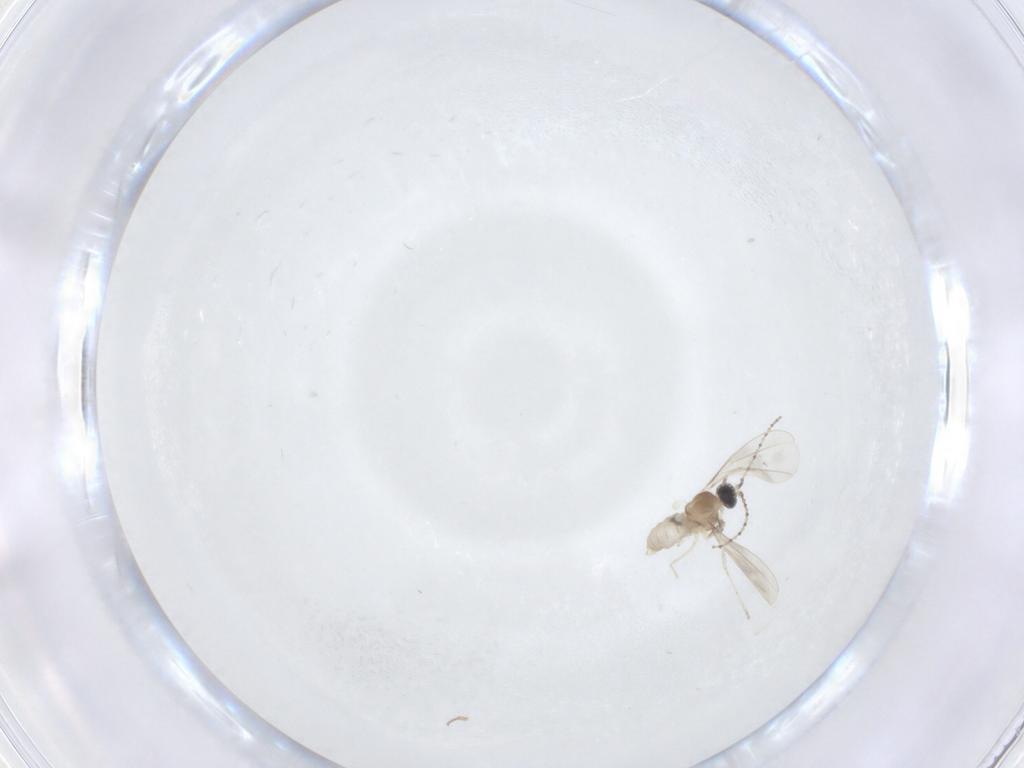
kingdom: Animalia
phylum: Arthropoda
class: Insecta
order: Diptera
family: Cecidomyiidae
